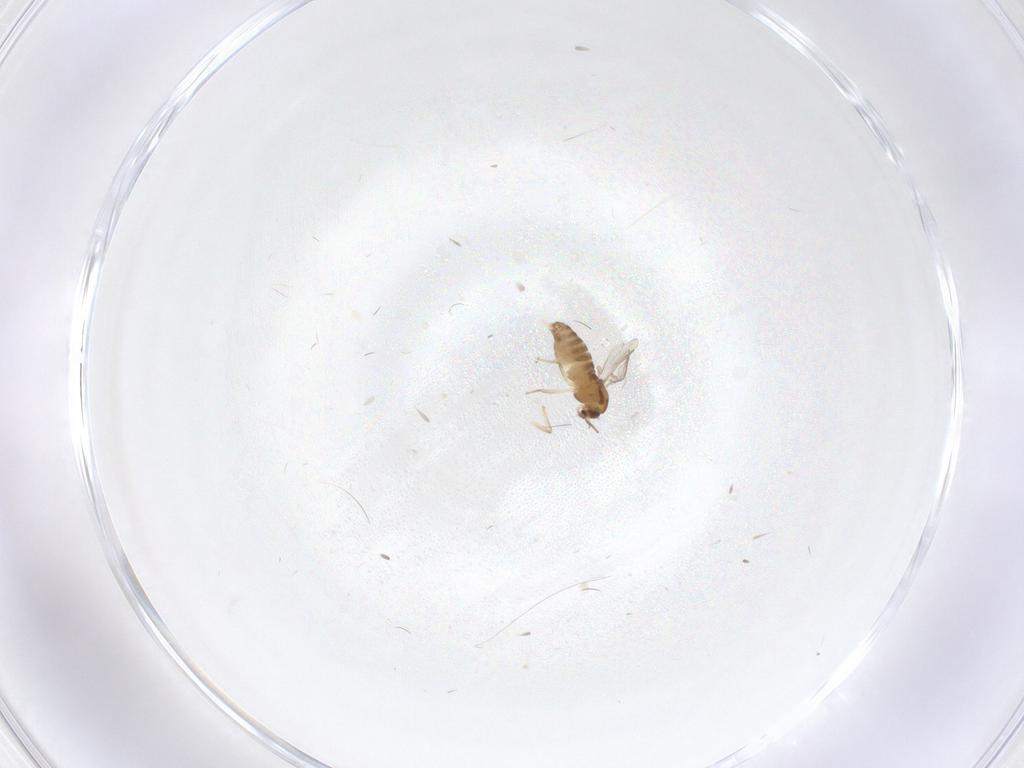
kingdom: Animalia
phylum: Arthropoda
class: Insecta
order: Diptera
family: Chironomidae
